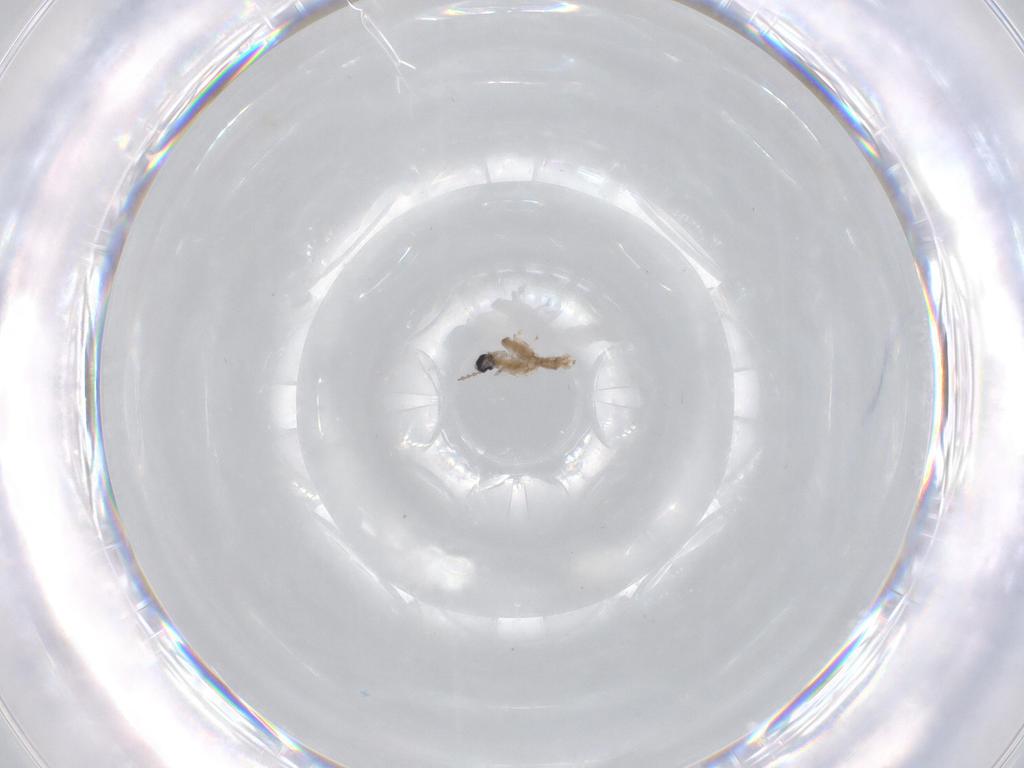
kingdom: Animalia
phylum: Arthropoda
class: Insecta
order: Diptera
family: Cecidomyiidae
